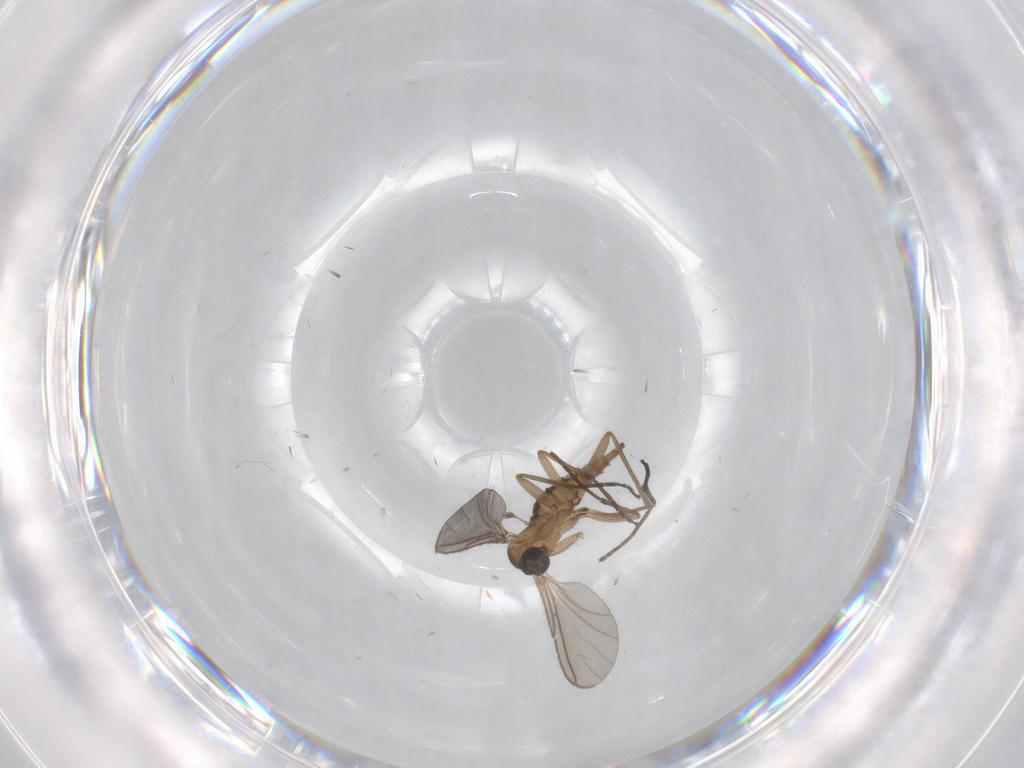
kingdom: Animalia
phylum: Arthropoda
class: Insecta
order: Diptera
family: Sciaridae
